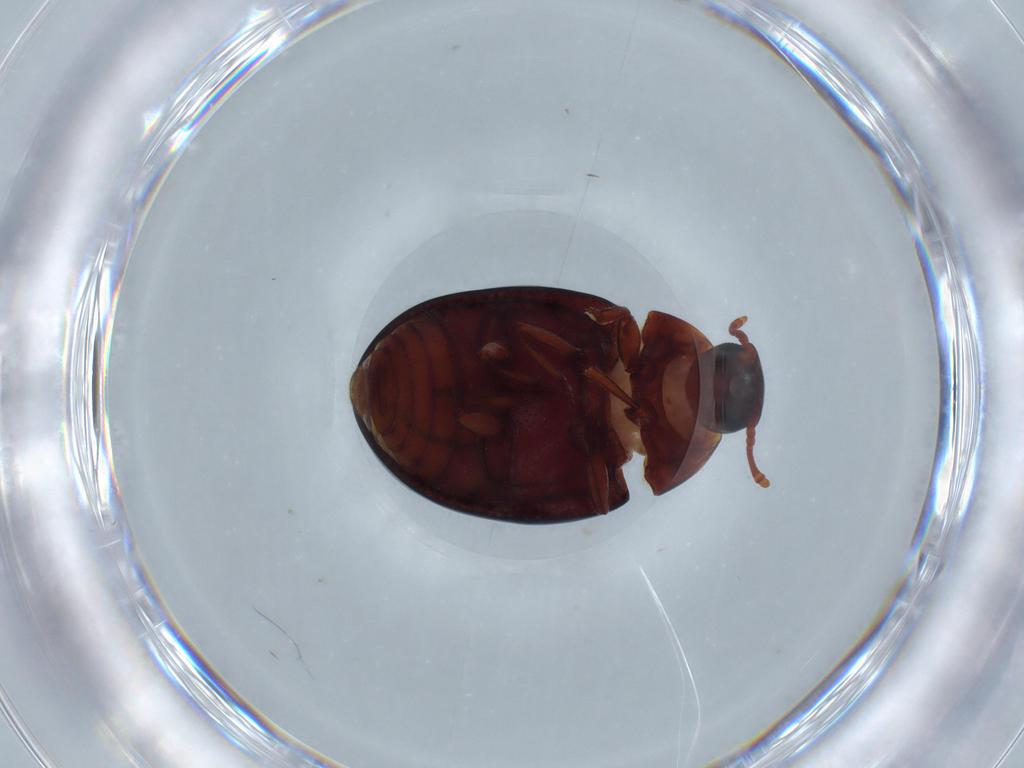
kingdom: Animalia
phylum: Arthropoda
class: Insecta
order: Coleoptera
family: Zopheridae
